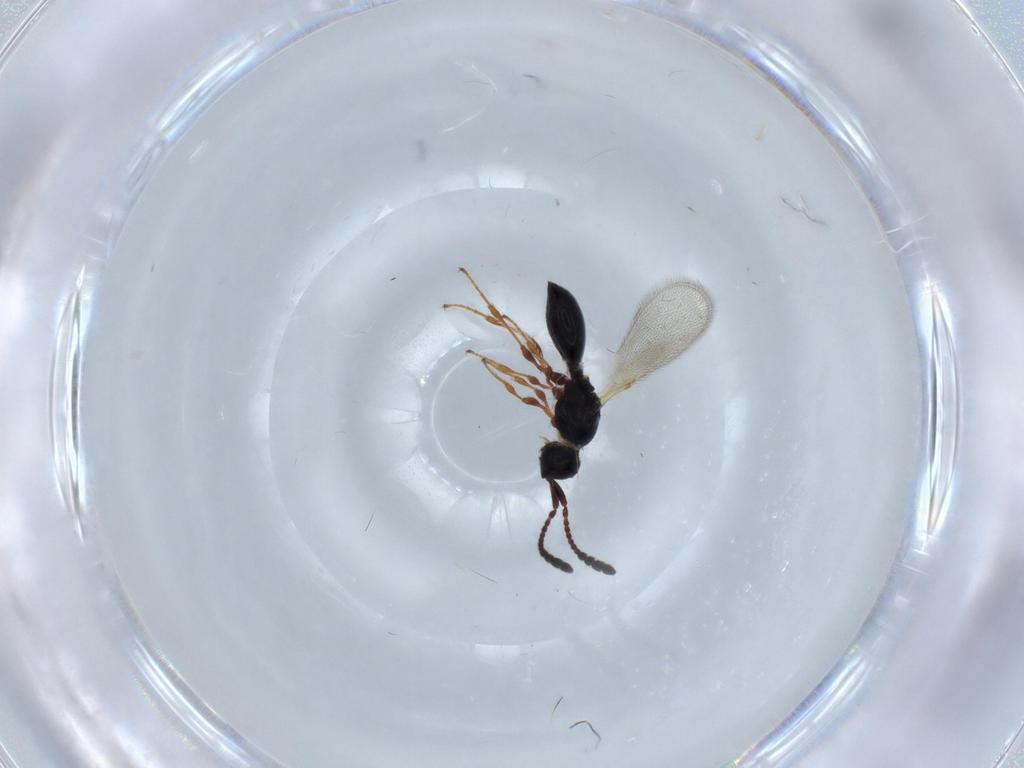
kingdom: Animalia
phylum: Arthropoda
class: Insecta
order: Hymenoptera
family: Diapriidae
